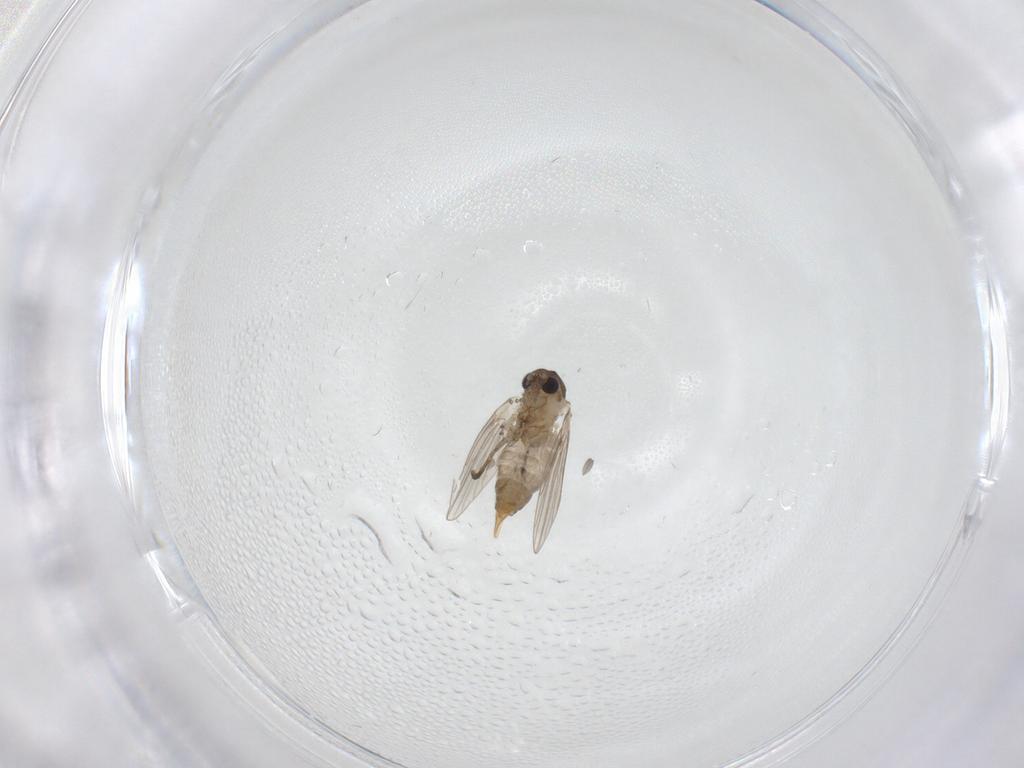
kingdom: Animalia
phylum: Arthropoda
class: Insecta
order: Diptera
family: Psychodidae
